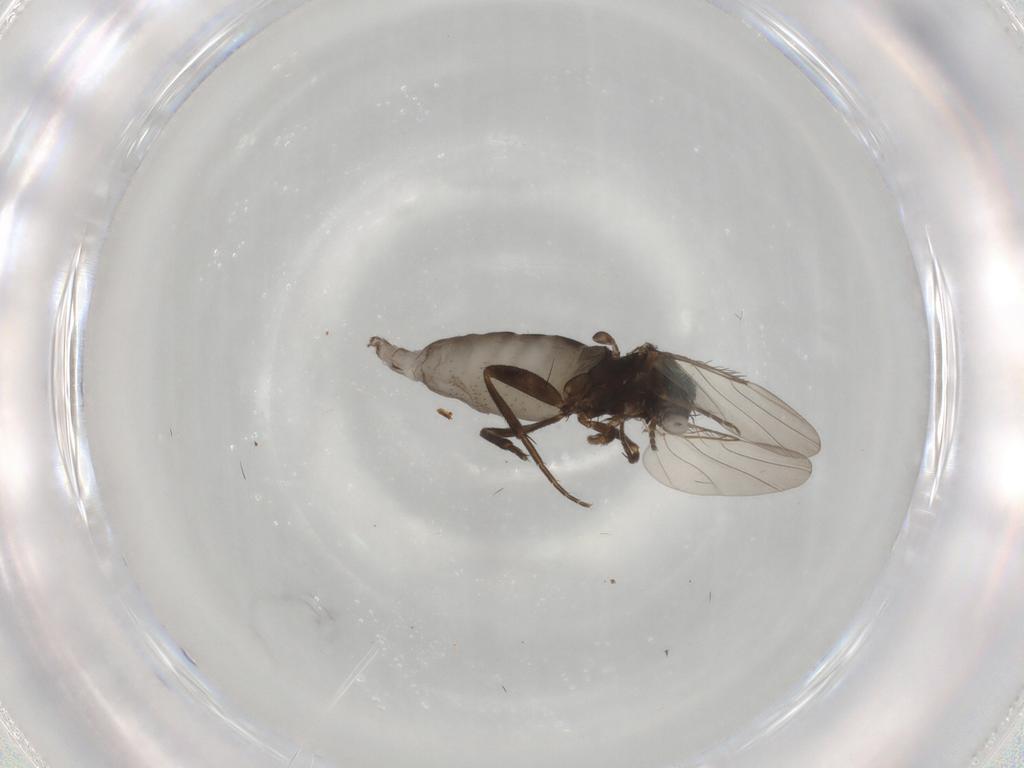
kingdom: Animalia
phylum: Arthropoda
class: Insecta
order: Diptera
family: Phoridae
